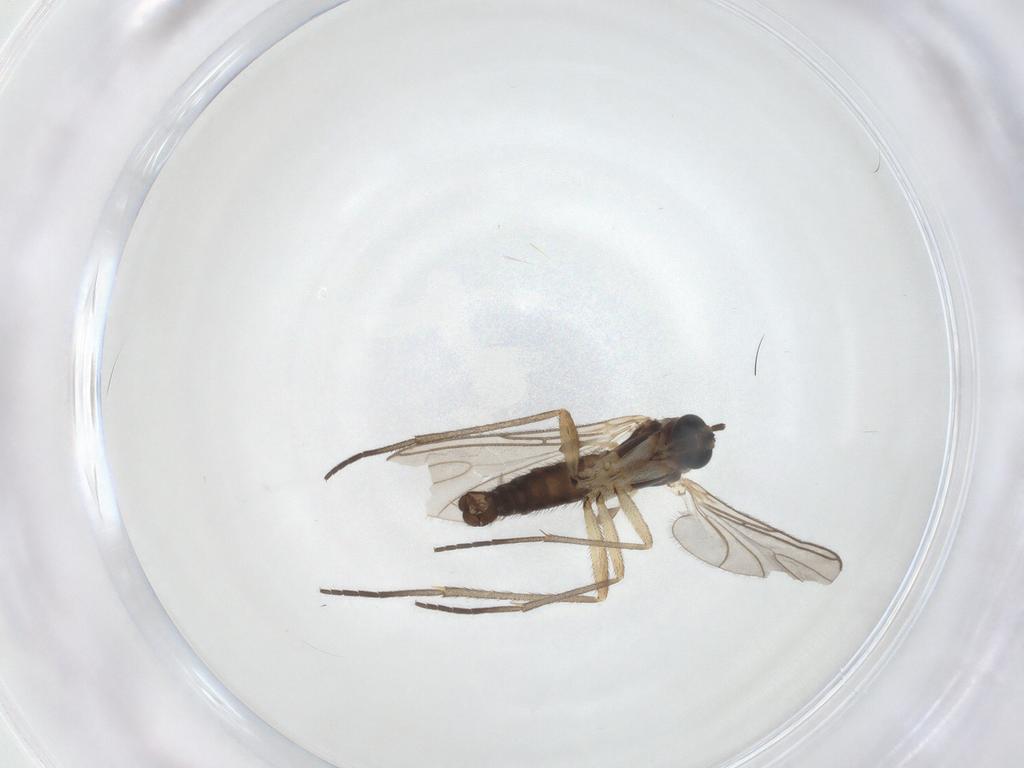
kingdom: Animalia
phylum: Arthropoda
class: Insecta
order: Diptera
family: Sciaridae
